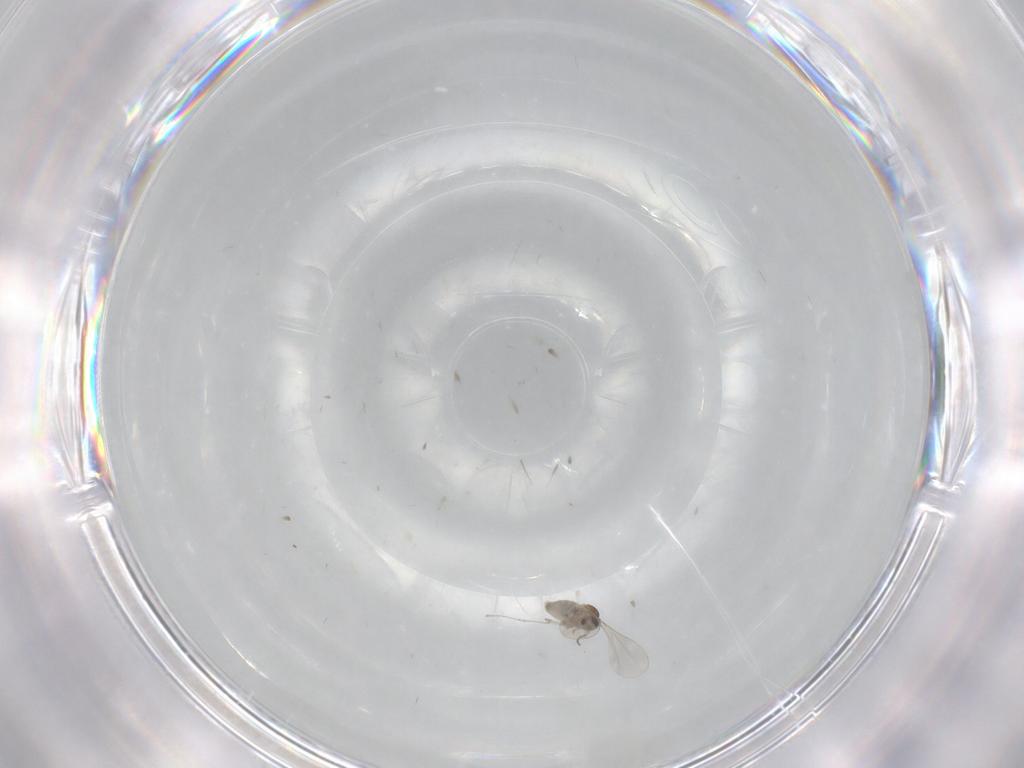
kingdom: Animalia
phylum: Arthropoda
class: Insecta
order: Diptera
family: Cecidomyiidae
